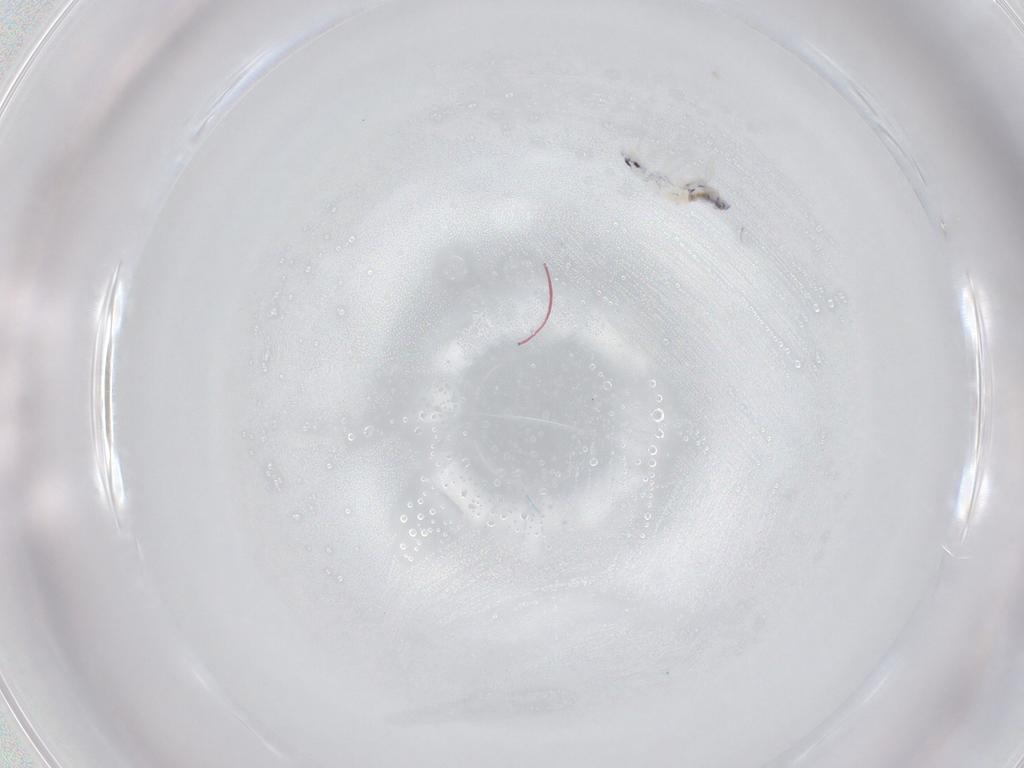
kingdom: Animalia
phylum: Arthropoda
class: Collembola
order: Entomobryomorpha
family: Entomobryidae
